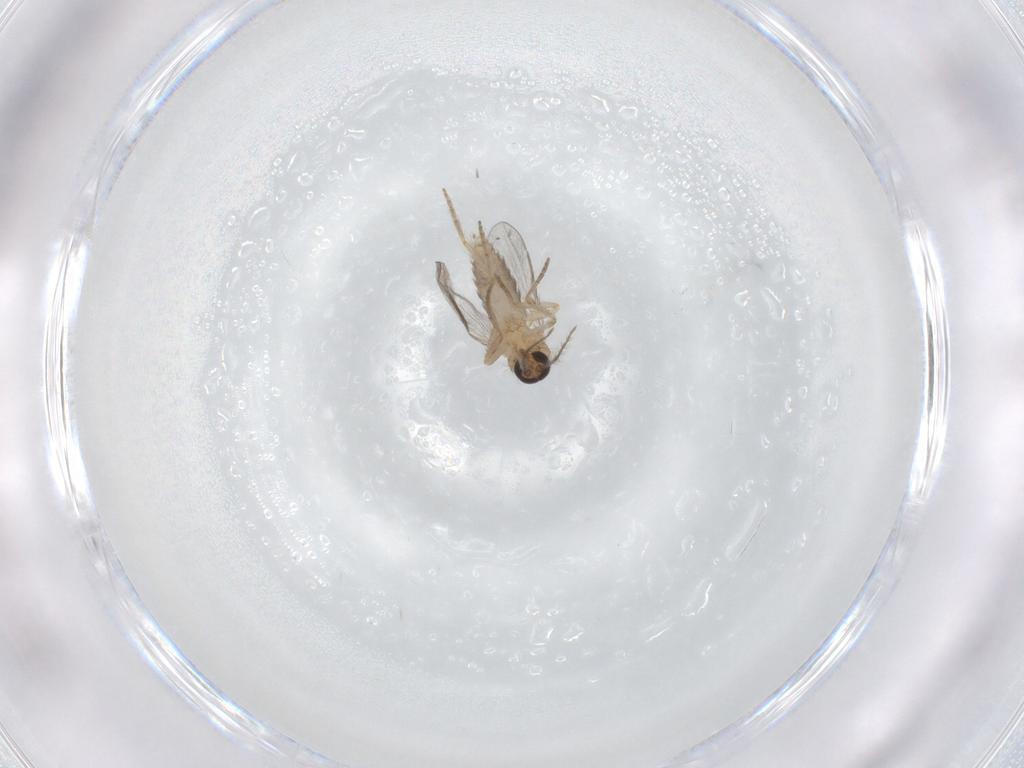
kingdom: Animalia
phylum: Arthropoda
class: Insecta
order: Diptera
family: Ceratopogonidae
